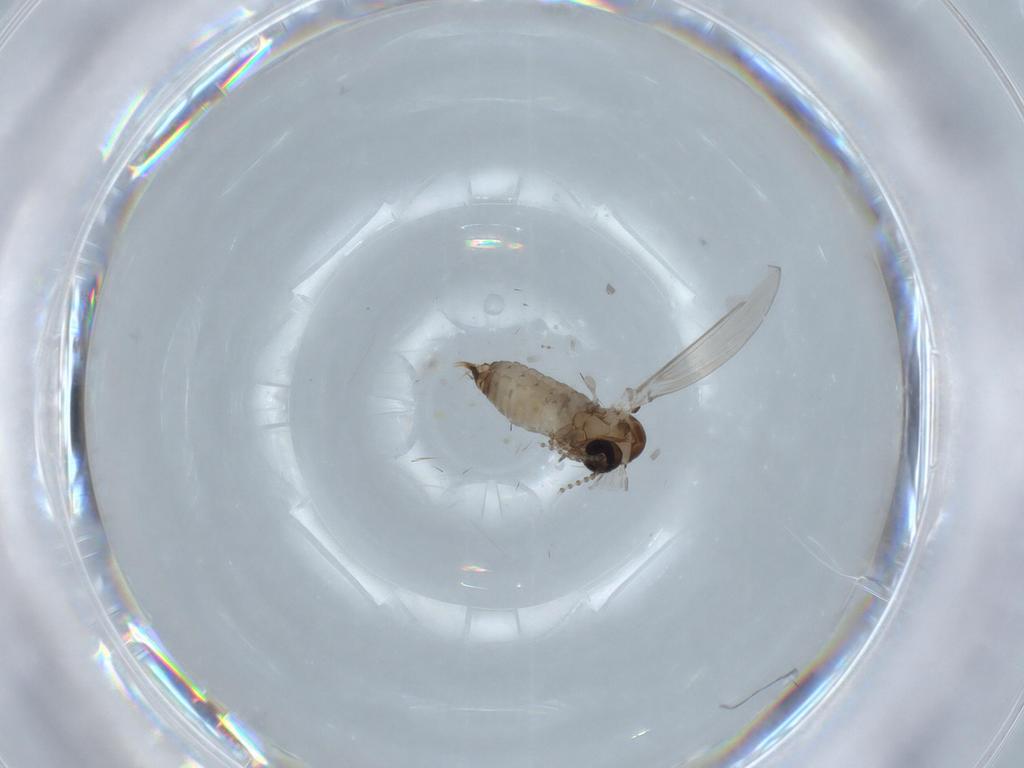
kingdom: Animalia
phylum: Arthropoda
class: Insecta
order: Diptera
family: Ceratopogonidae
